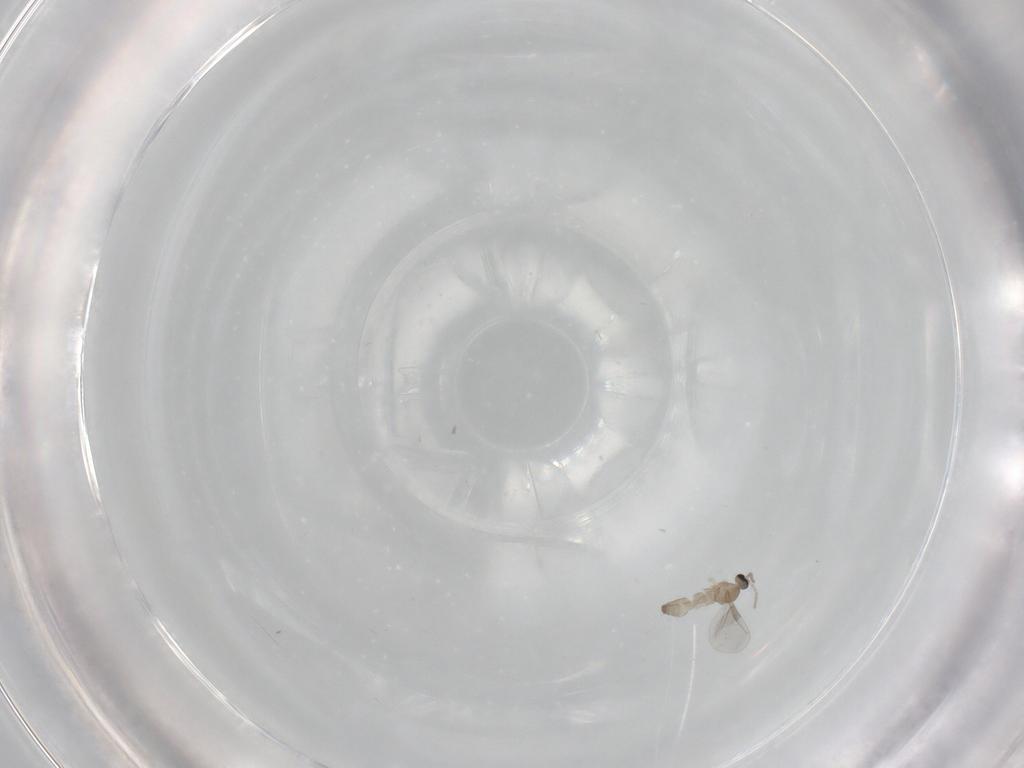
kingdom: Animalia
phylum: Arthropoda
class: Insecta
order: Diptera
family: Cecidomyiidae
